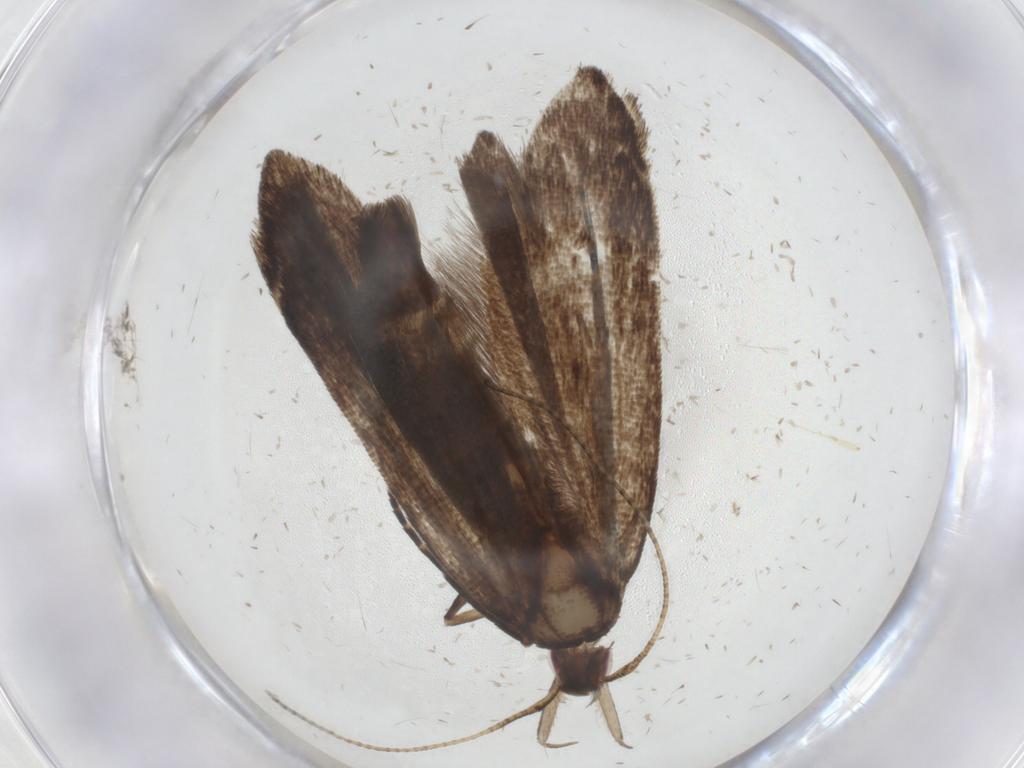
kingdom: Animalia
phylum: Arthropoda
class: Insecta
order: Lepidoptera
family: Gelechiidae
